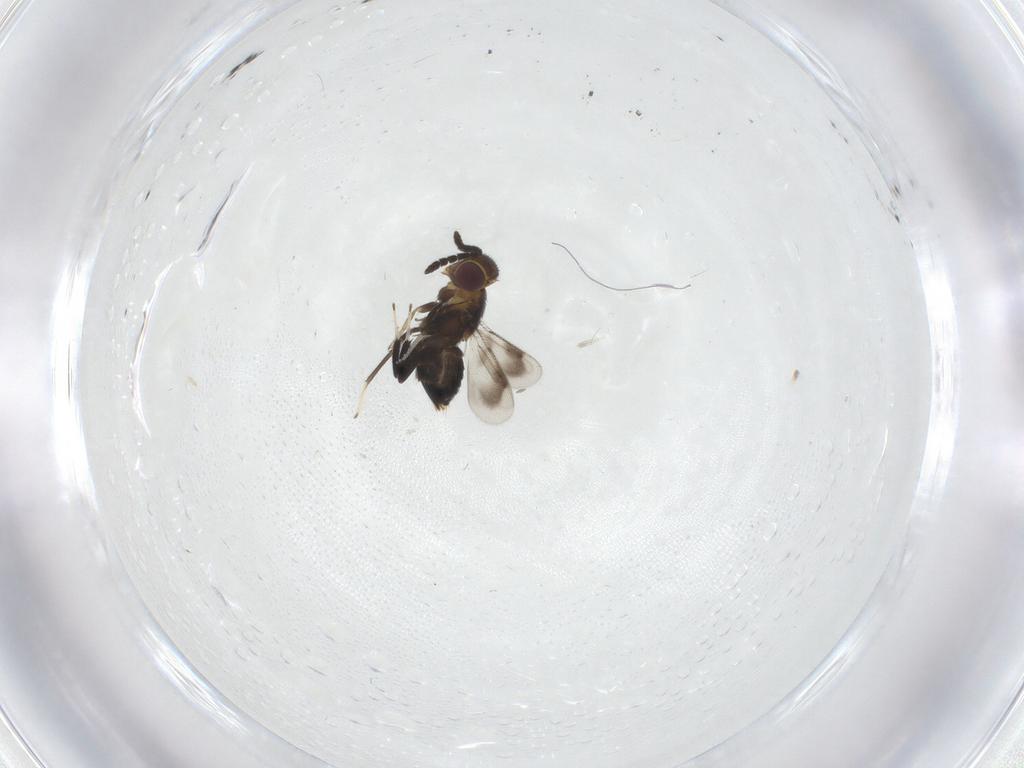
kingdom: Animalia
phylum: Arthropoda
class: Insecta
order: Hymenoptera
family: Aphelinidae
